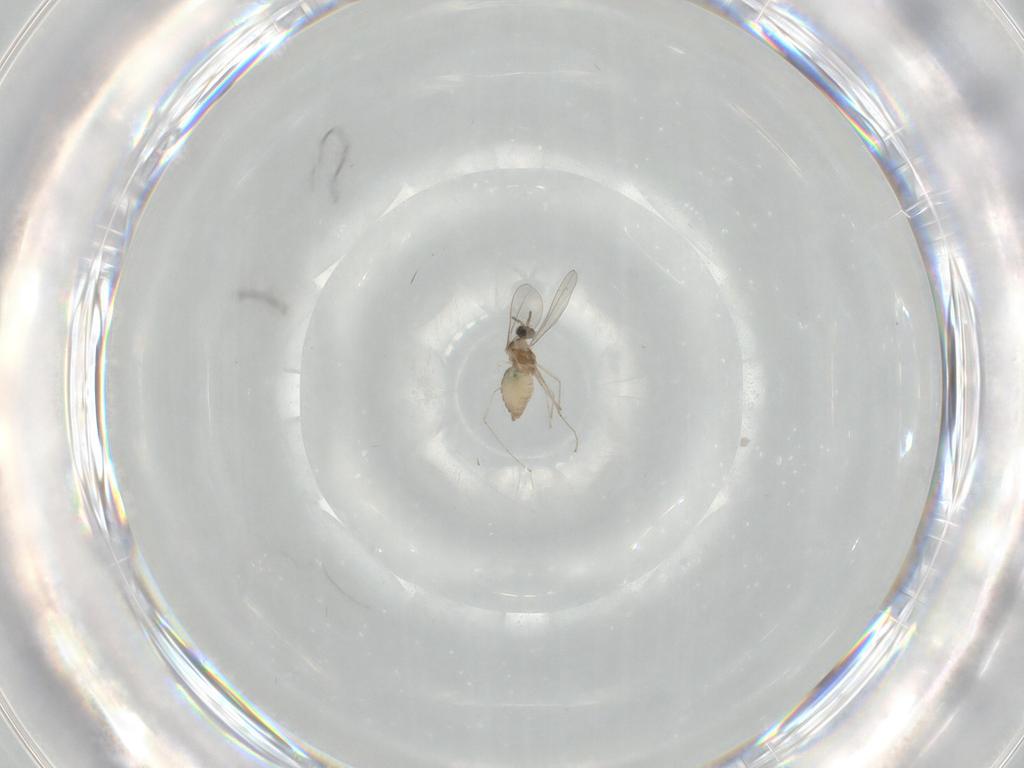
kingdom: Animalia
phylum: Arthropoda
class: Insecta
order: Diptera
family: Cecidomyiidae
